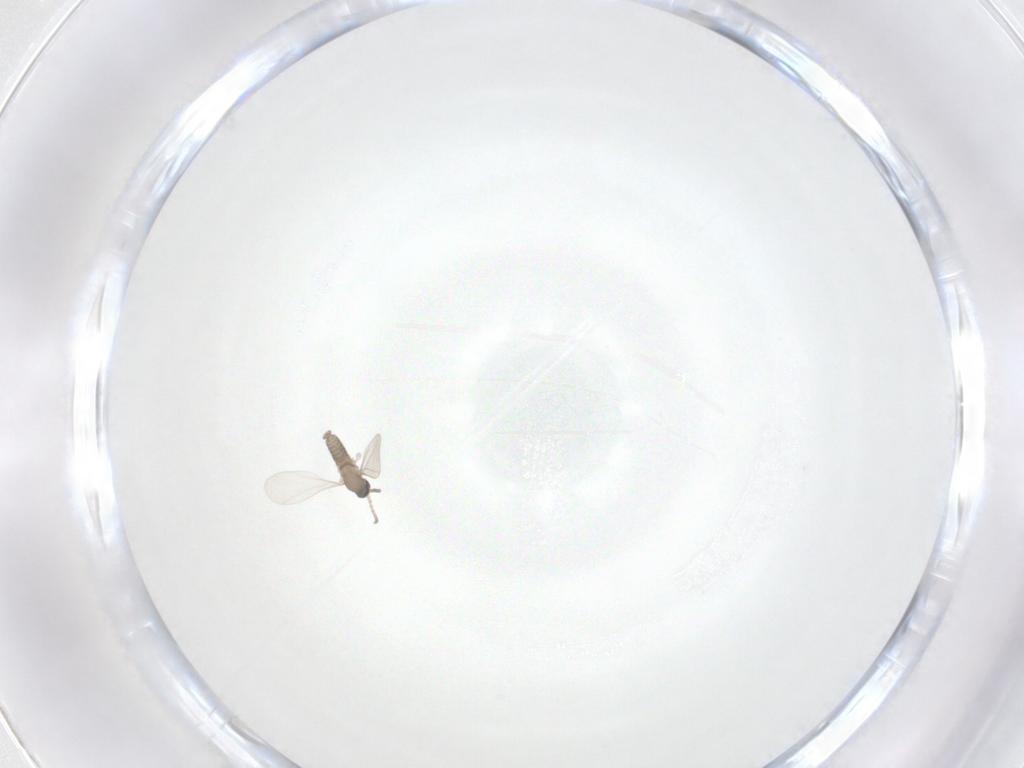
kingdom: Animalia
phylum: Arthropoda
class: Insecta
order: Diptera
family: Cecidomyiidae
